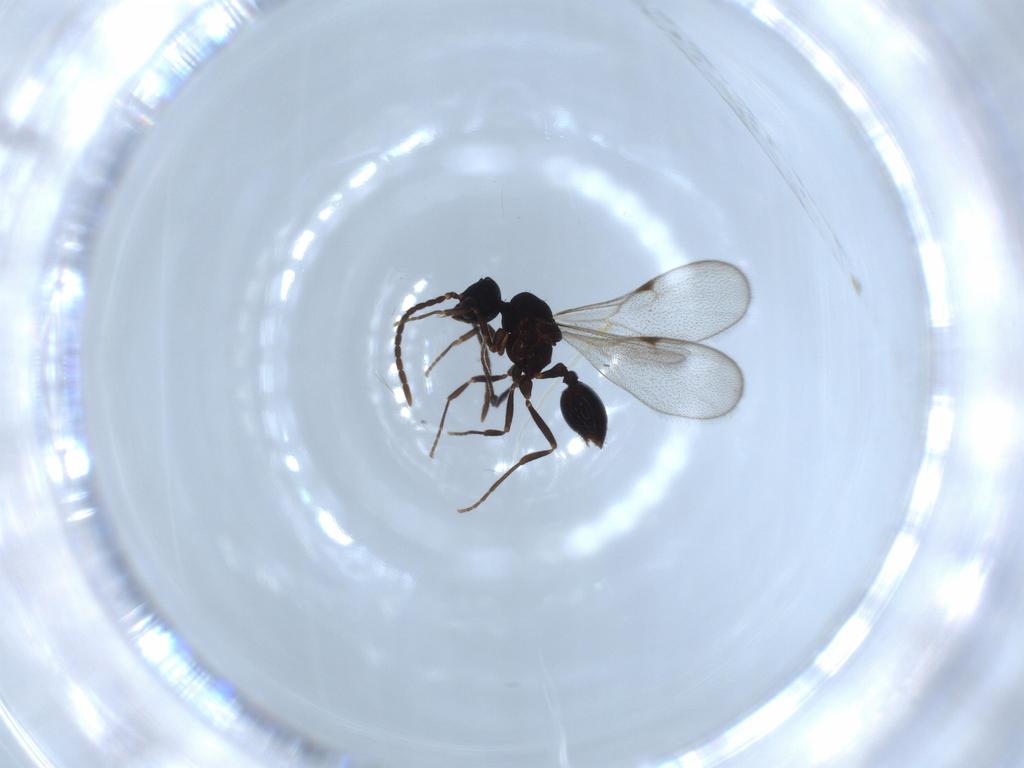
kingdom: Animalia
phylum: Arthropoda
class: Insecta
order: Hymenoptera
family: Formicidae
